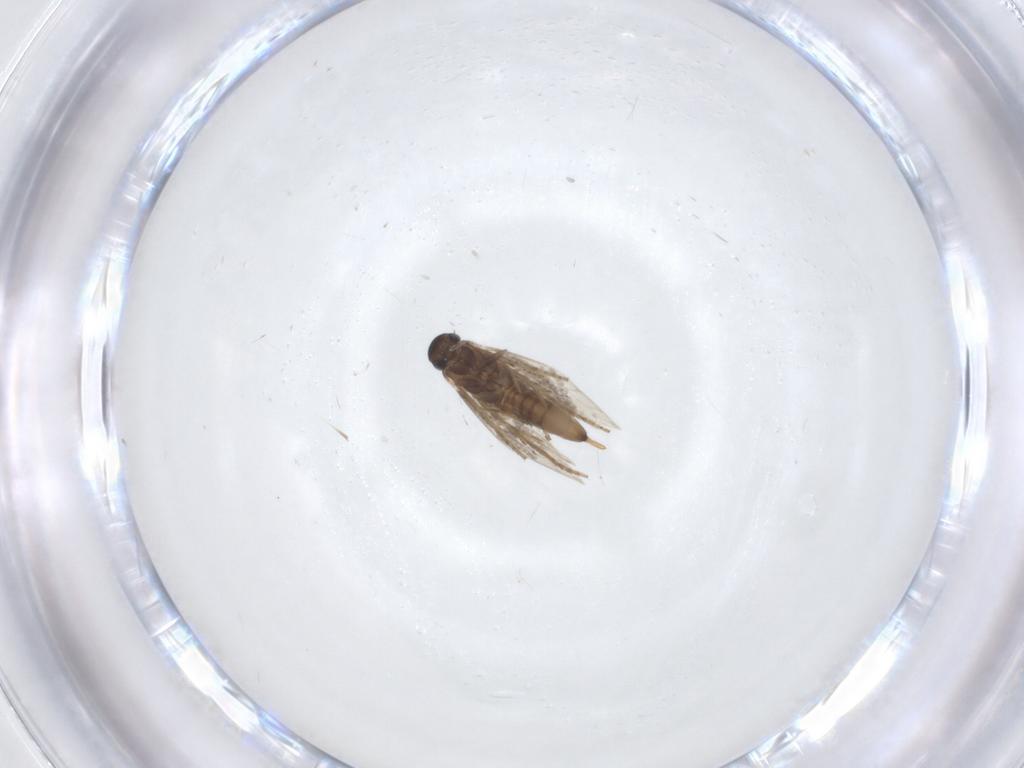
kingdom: Animalia
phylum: Arthropoda
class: Insecta
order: Lepidoptera
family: Heliozelidae
